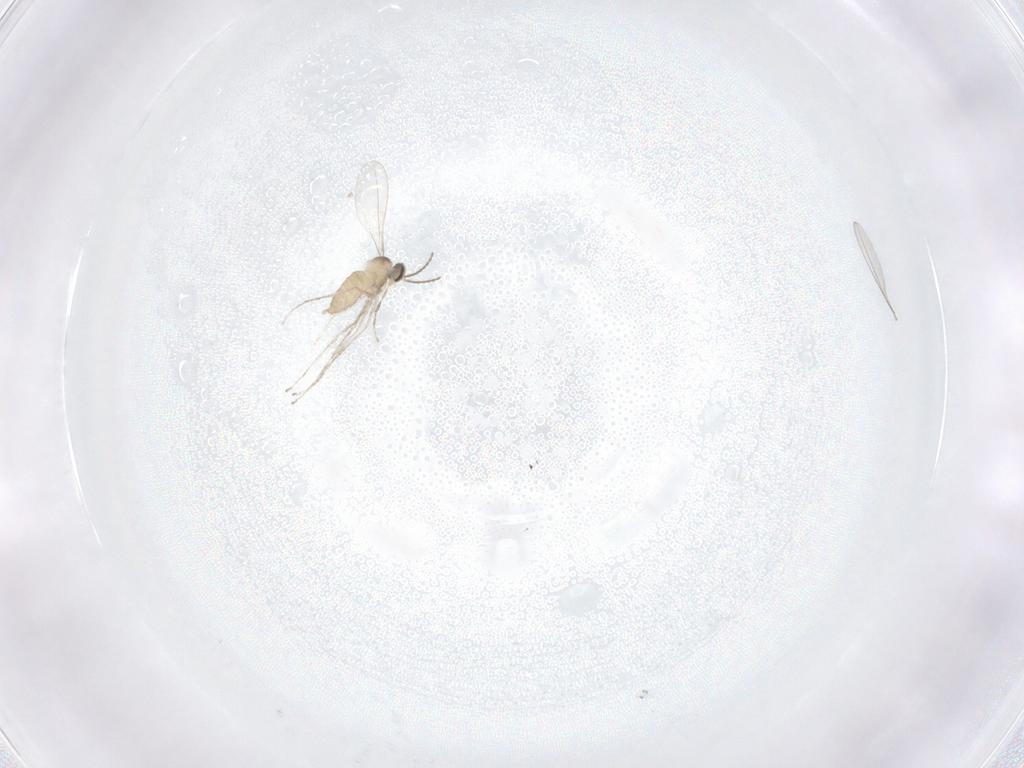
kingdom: Animalia
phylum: Arthropoda
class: Insecta
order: Diptera
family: Cecidomyiidae
